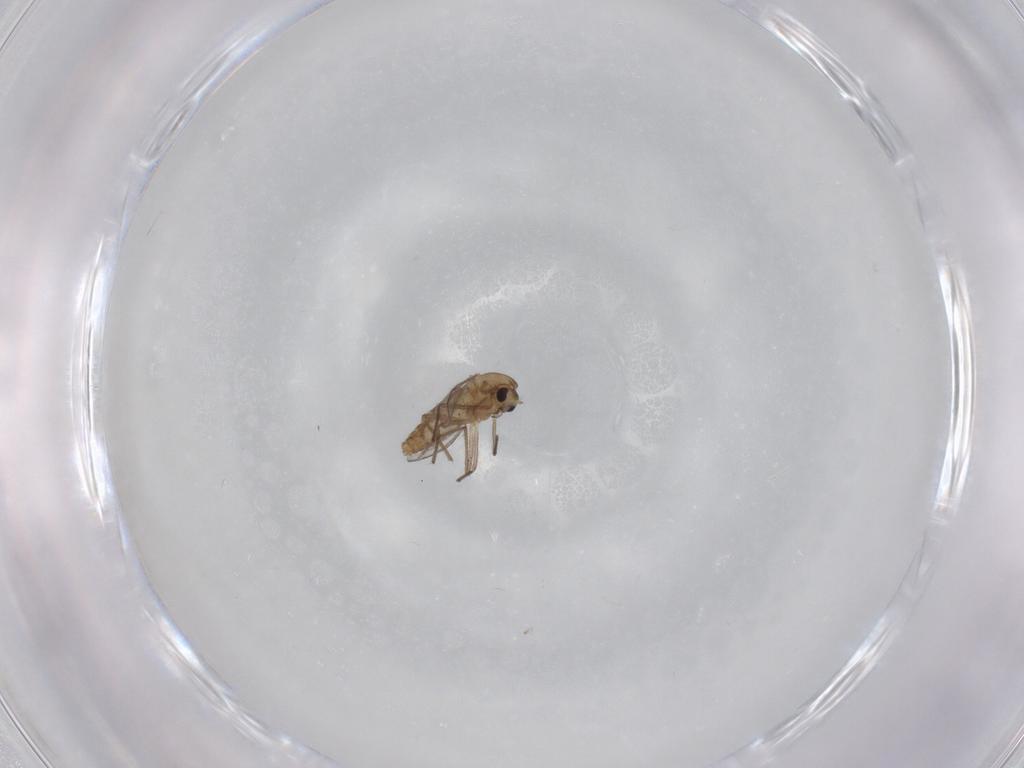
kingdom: Animalia
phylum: Arthropoda
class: Insecta
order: Diptera
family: Chironomidae
